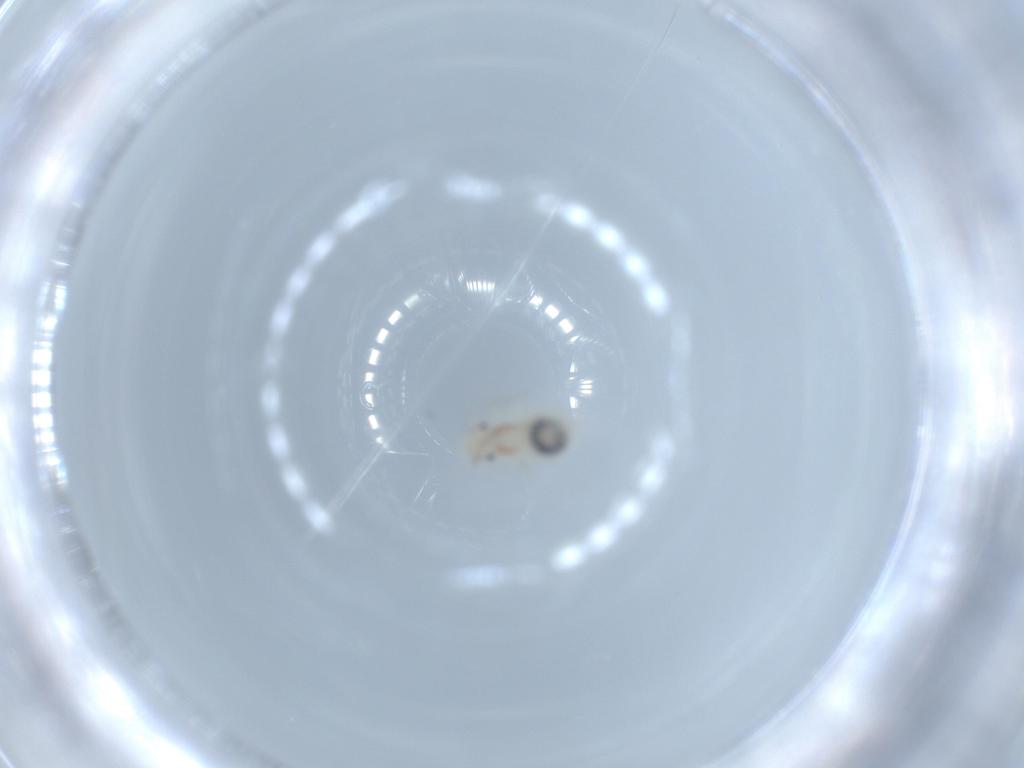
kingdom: Animalia
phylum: Arthropoda
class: Insecta
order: Psocodea
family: Amphipsocidae
